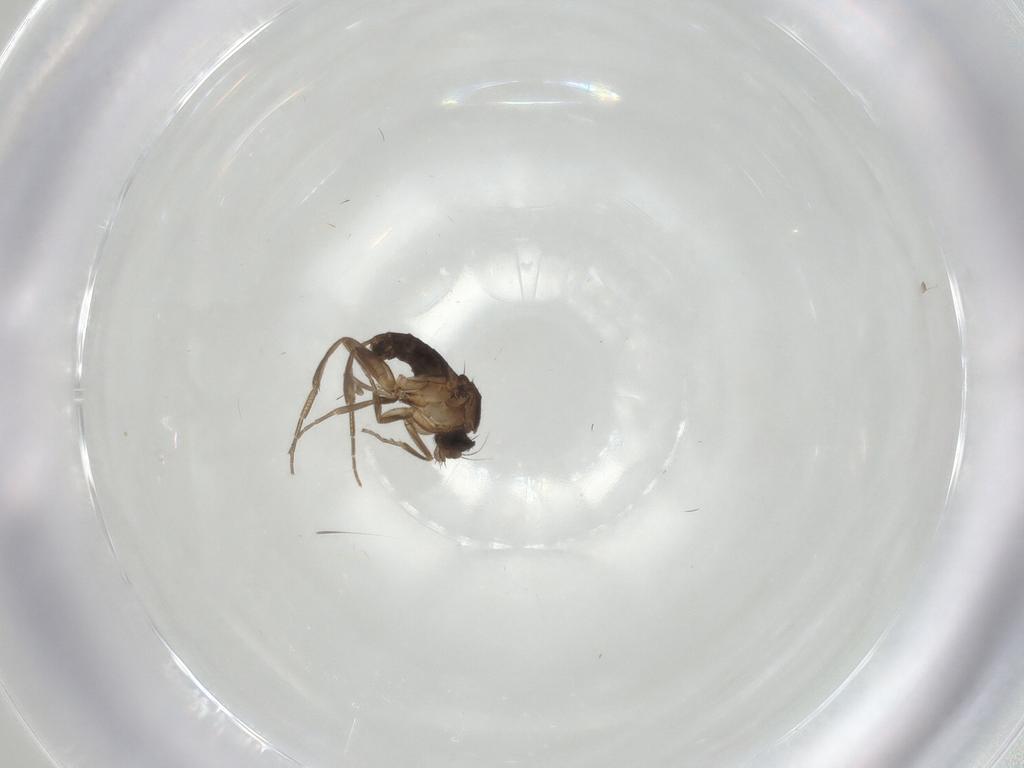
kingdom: Animalia
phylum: Arthropoda
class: Insecta
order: Diptera
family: Phoridae
